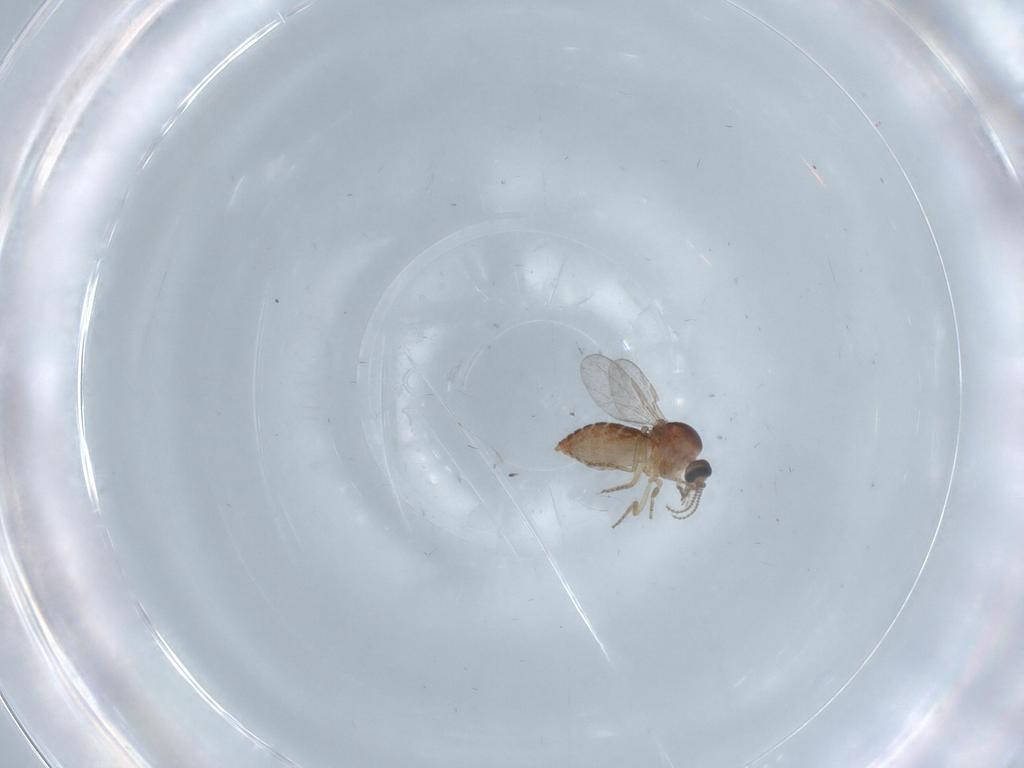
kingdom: Animalia
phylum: Arthropoda
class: Insecta
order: Diptera
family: Ceratopogonidae
